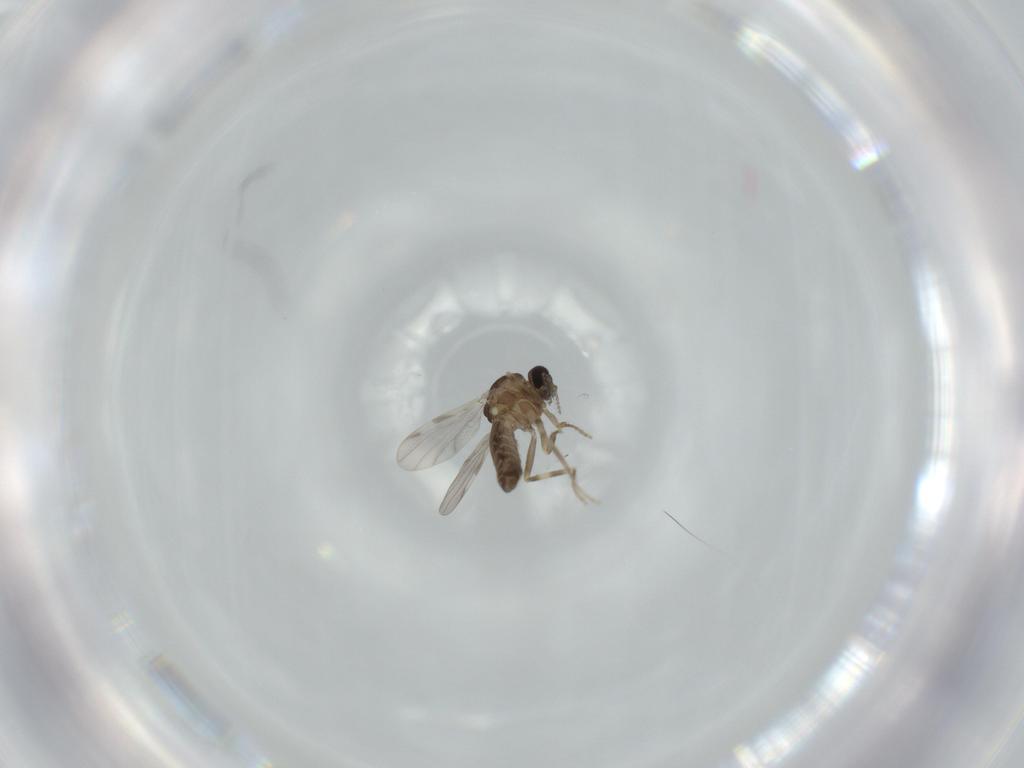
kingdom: Animalia
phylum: Arthropoda
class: Insecta
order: Diptera
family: Ceratopogonidae
